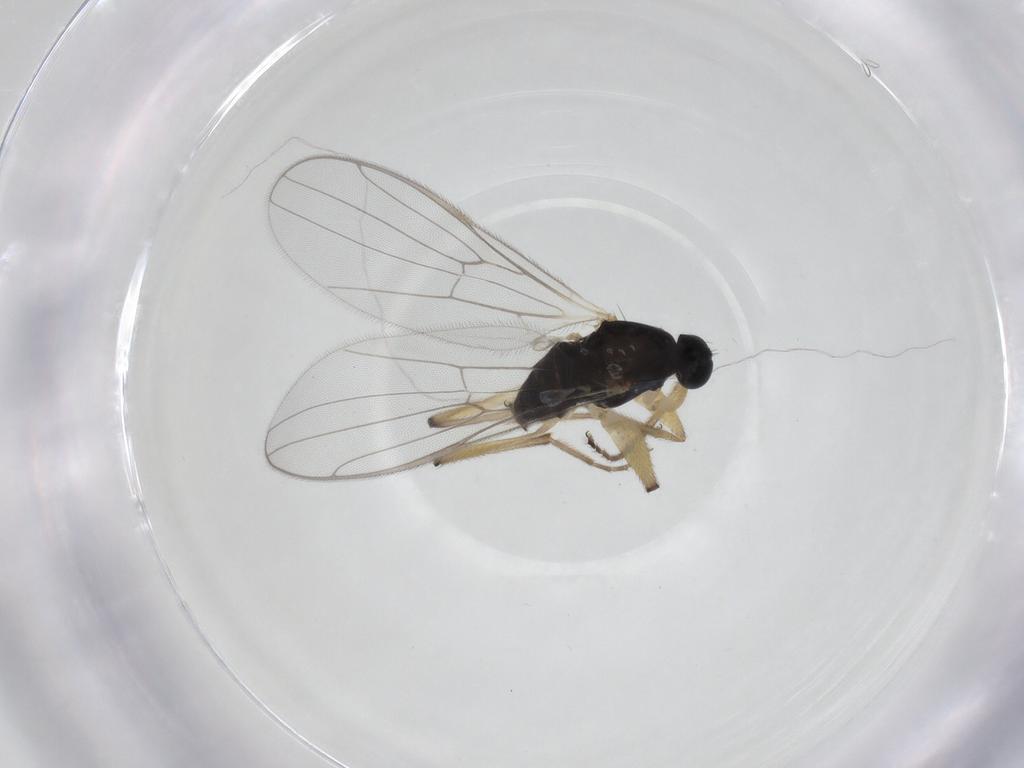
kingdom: Animalia
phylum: Arthropoda
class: Insecta
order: Diptera
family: Hybotidae
